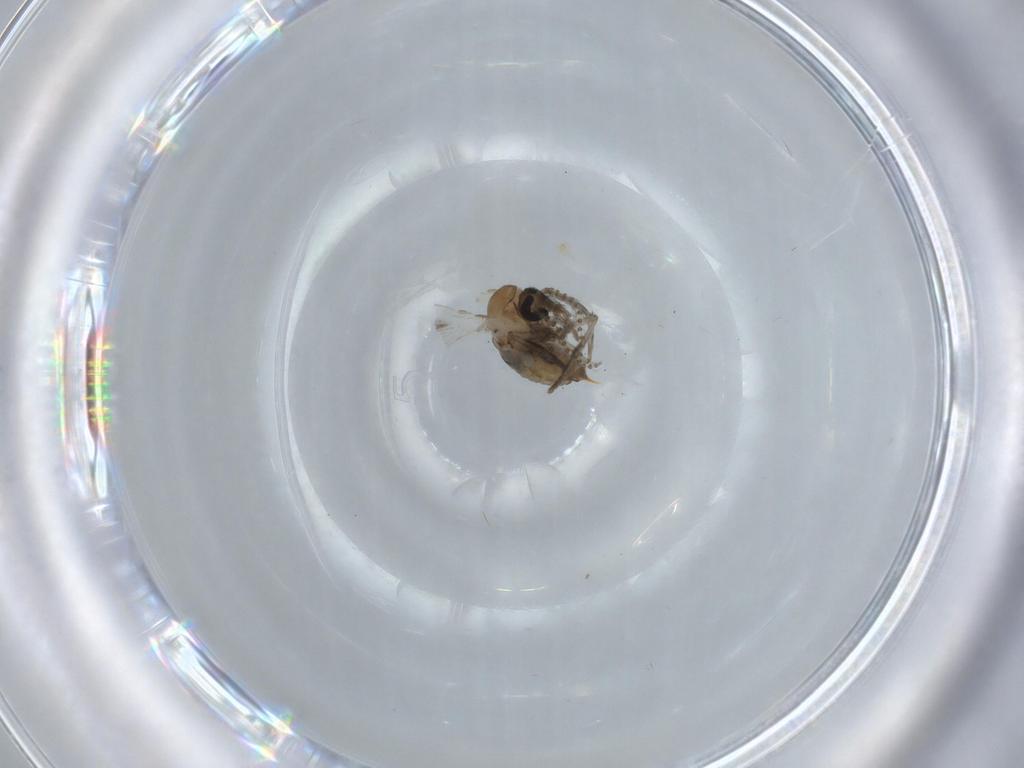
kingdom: Animalia
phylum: Arthropoda
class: Insecta
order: Diptera
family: Psychodidae
